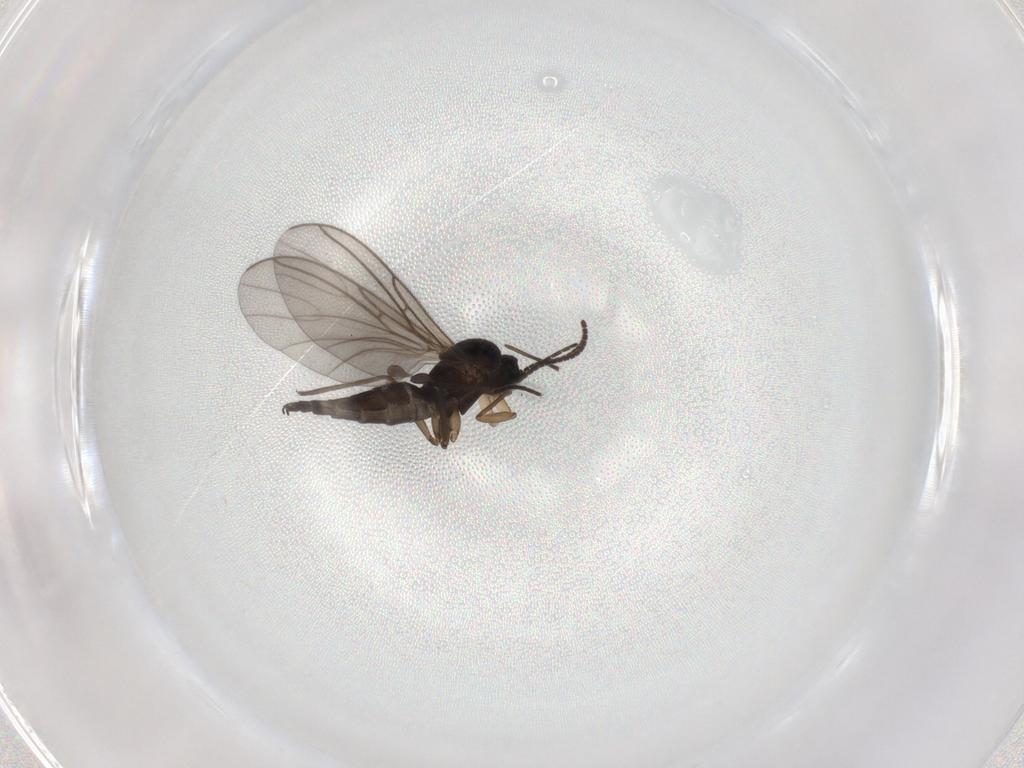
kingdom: Animalia
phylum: Arthropoda
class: Insecta
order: Diptera
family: Sciaridae
